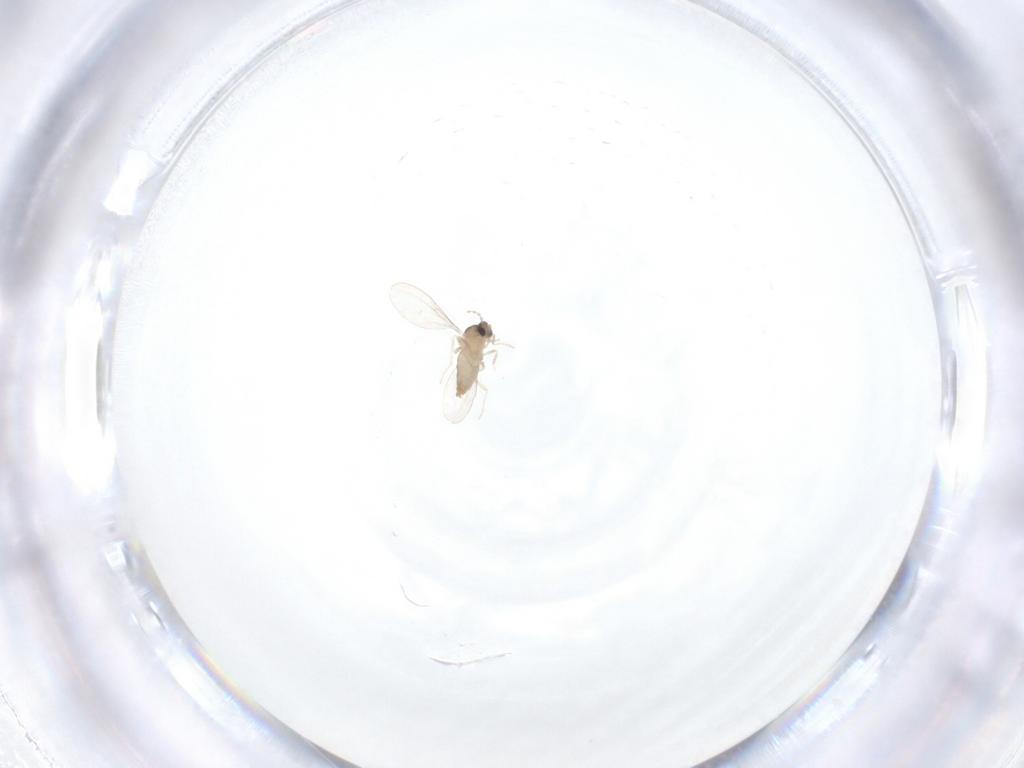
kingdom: Animalia
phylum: Arthropoda
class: Insecta
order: Diptera
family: Cecidomyiidae
